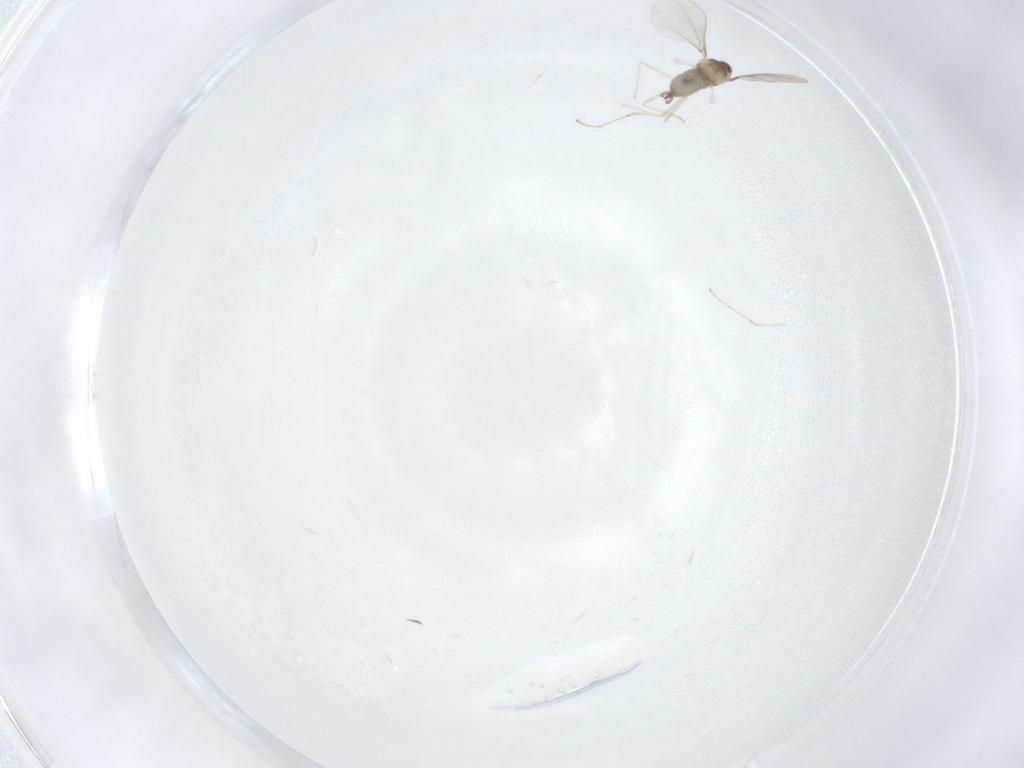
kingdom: Animalia
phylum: Arthropoda
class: Insecta
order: Diptera
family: Cecidomyiidae
